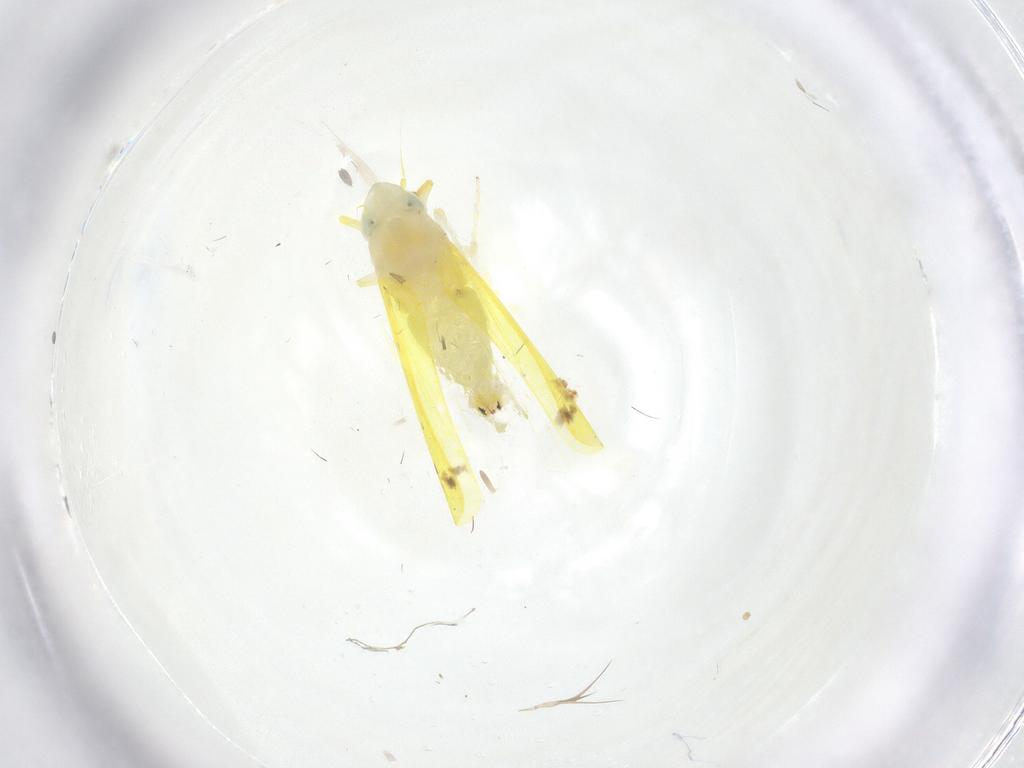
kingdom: Animalia
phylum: Arthropoda
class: Insecta
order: Hemiptera
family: Cicadellidae
